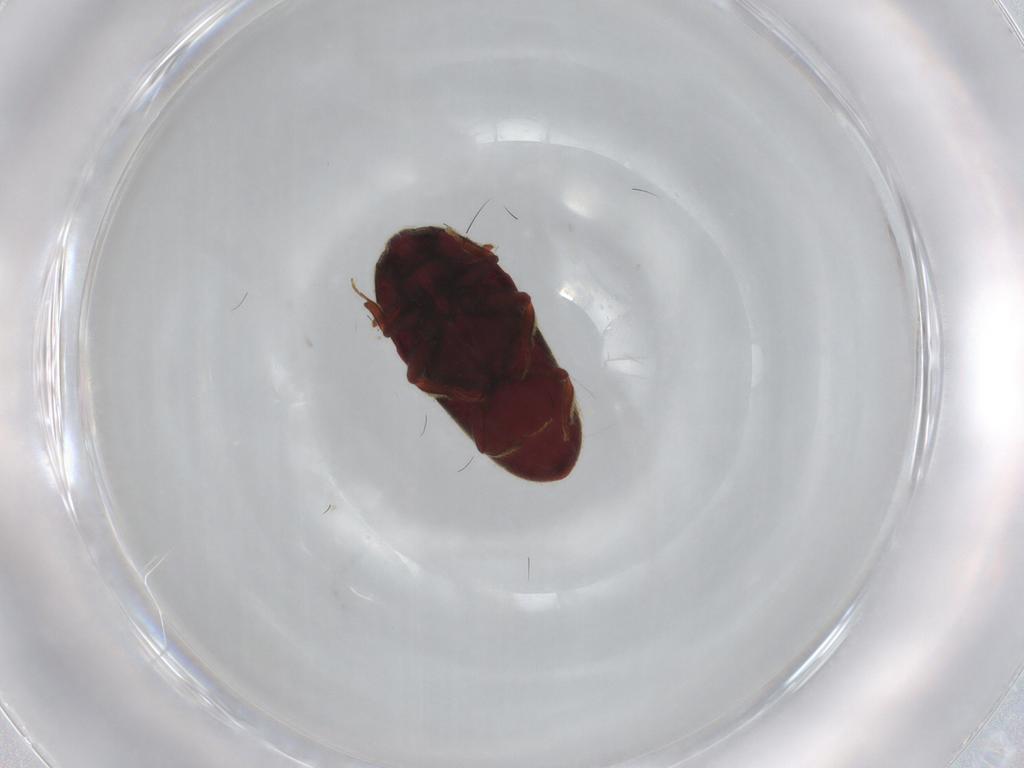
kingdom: Animalia
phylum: Arthropoda
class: Insecta
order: Coleoptera
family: Throscidae
